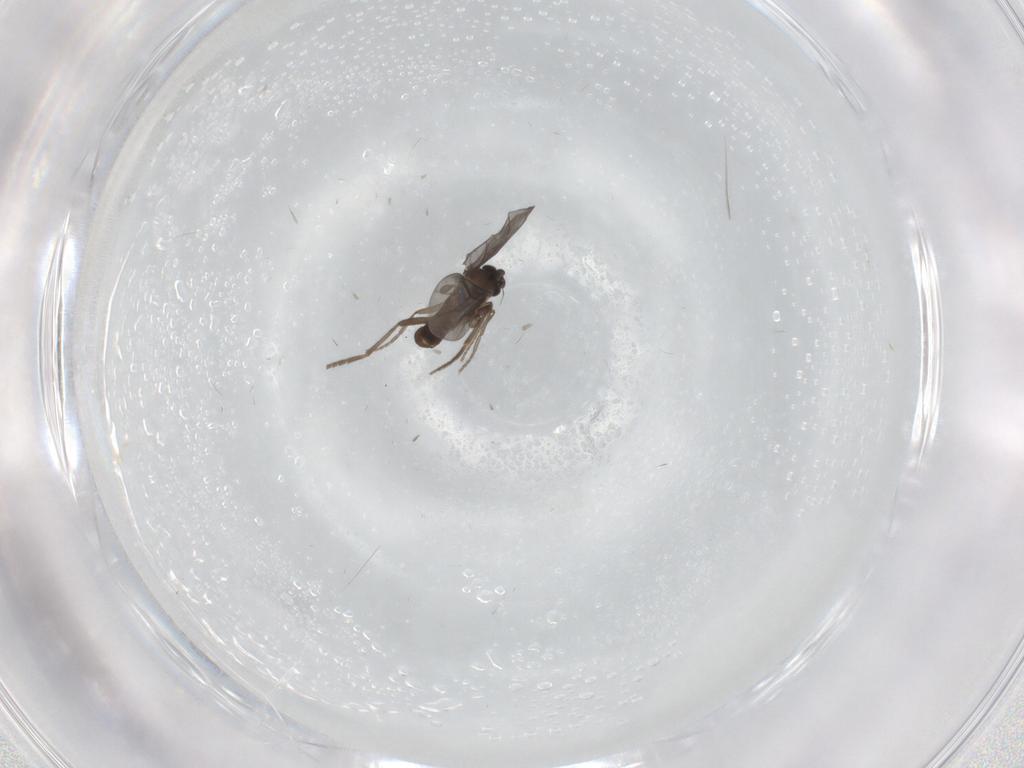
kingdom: Animalia
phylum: Arthropoda
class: Insecta
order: Diptera
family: Phoridae
